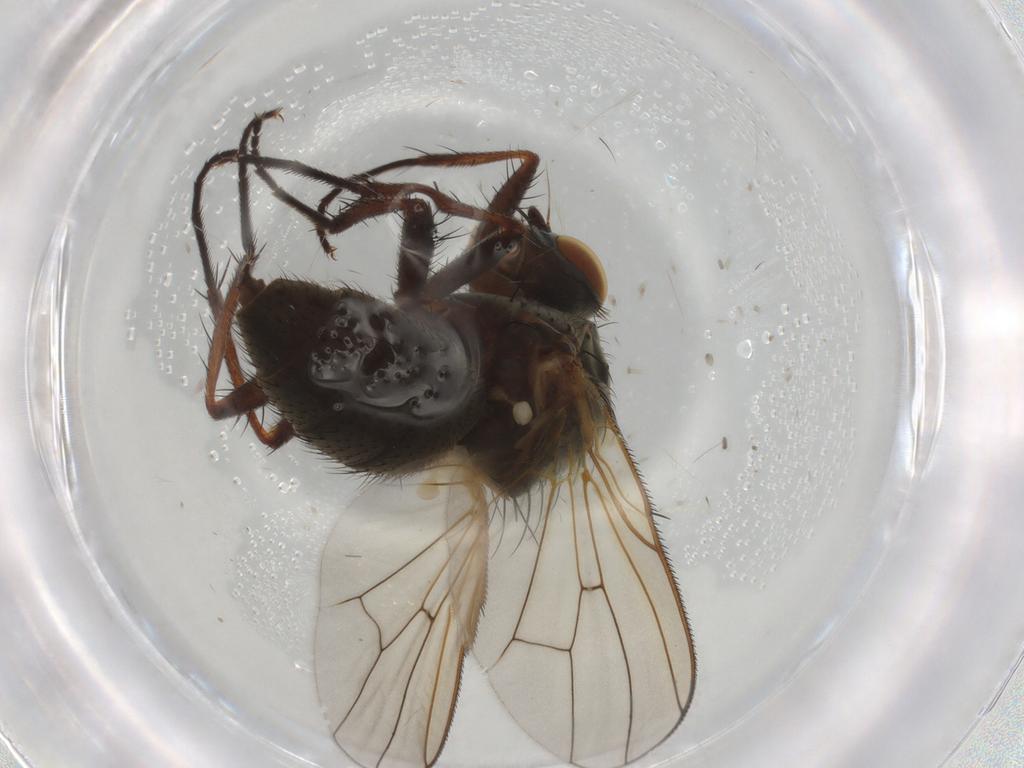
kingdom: Animalia
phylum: Arthropoda
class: Insecta
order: Diptera
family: Anthomyiidae
